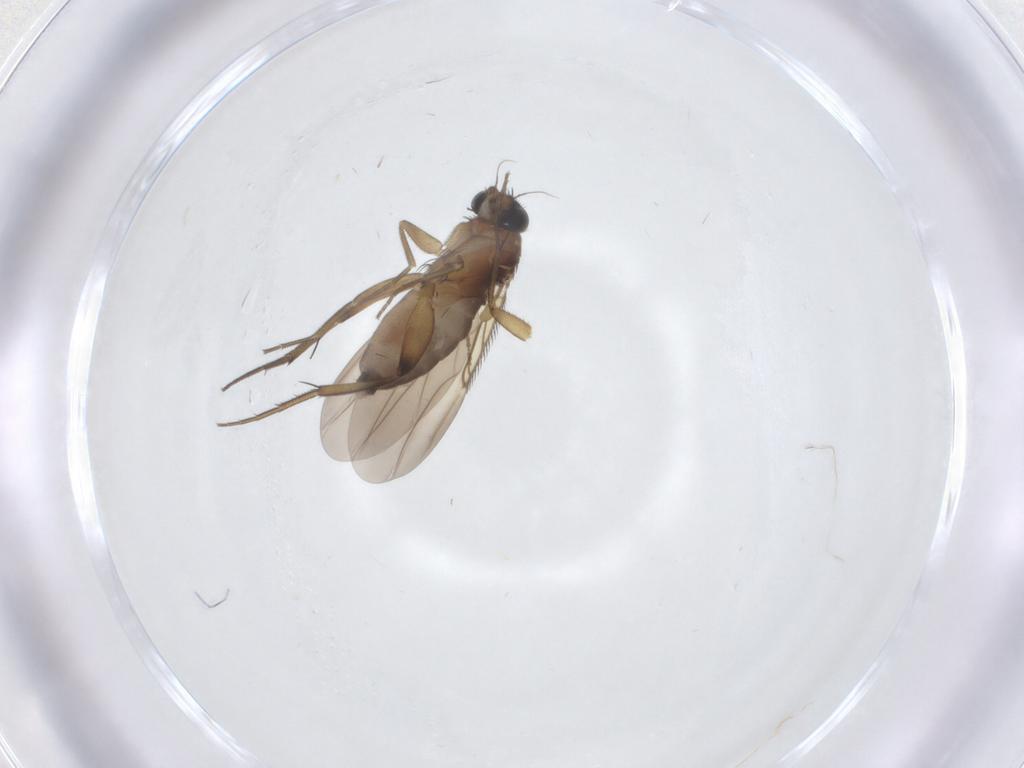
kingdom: Animalia
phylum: Arthropoda
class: Insecta
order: Diptera
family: Phoridae
